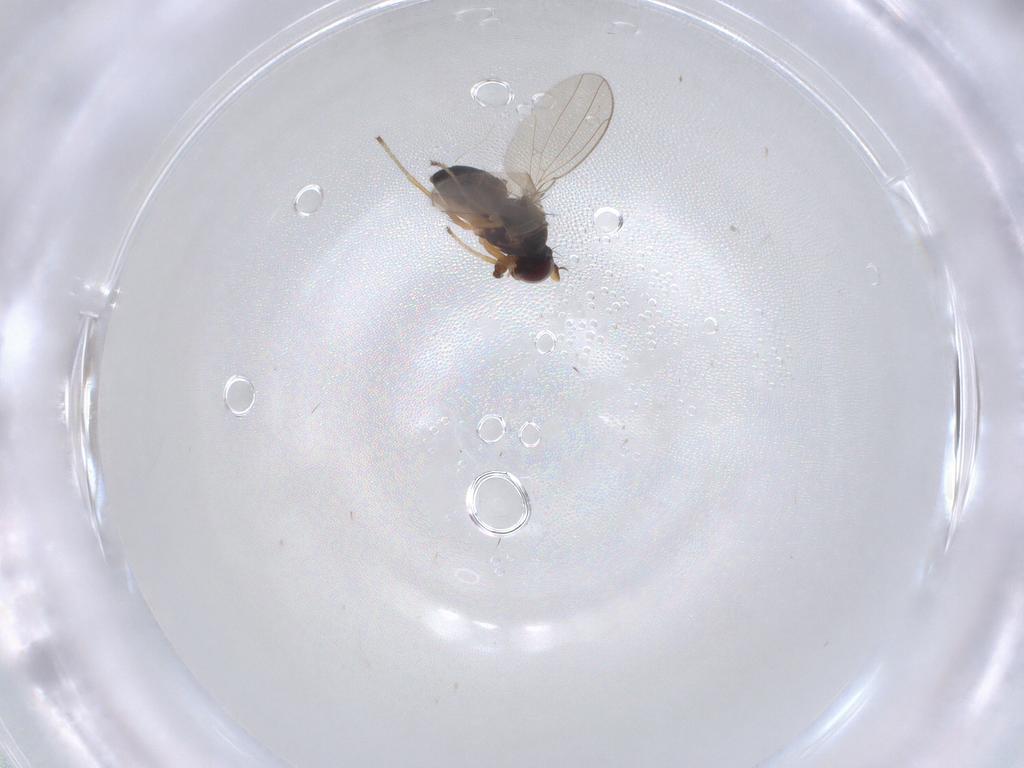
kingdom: Animalia
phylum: Arthropoda
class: Insecta
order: Diptera
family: Ephydridae
